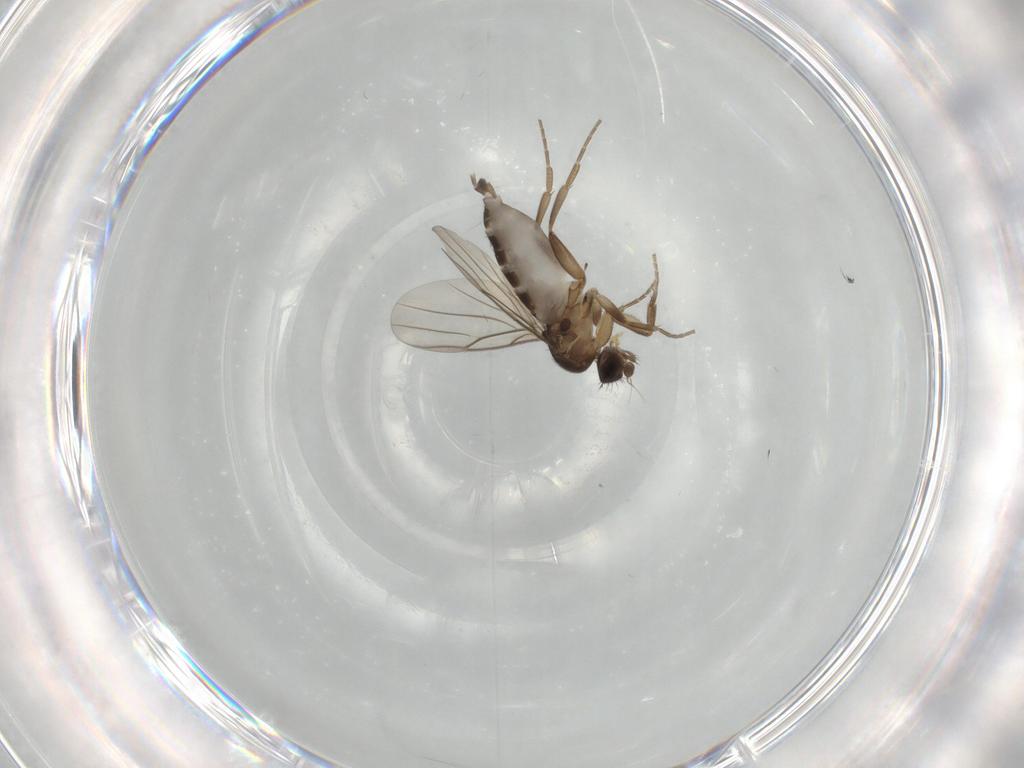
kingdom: Animalia
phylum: Arthropoda
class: Insecta
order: Diptera
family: Phoridae
